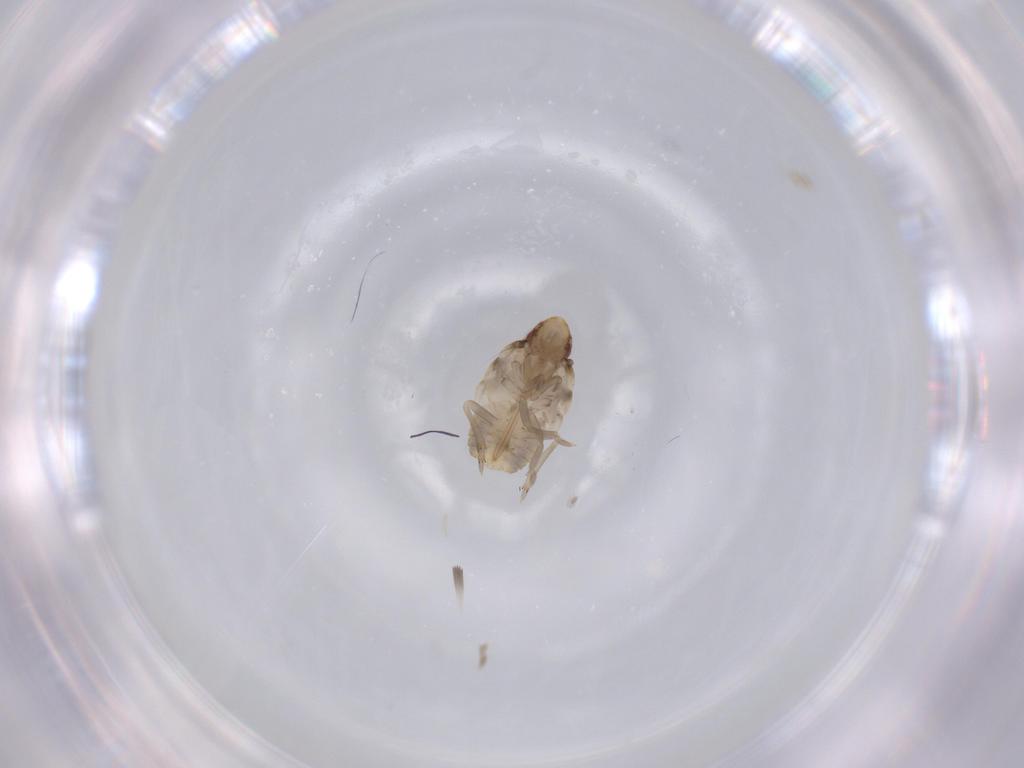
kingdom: Animalia
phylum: Arthropoda
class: Insecta
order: Hemiptera
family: Flatidae
